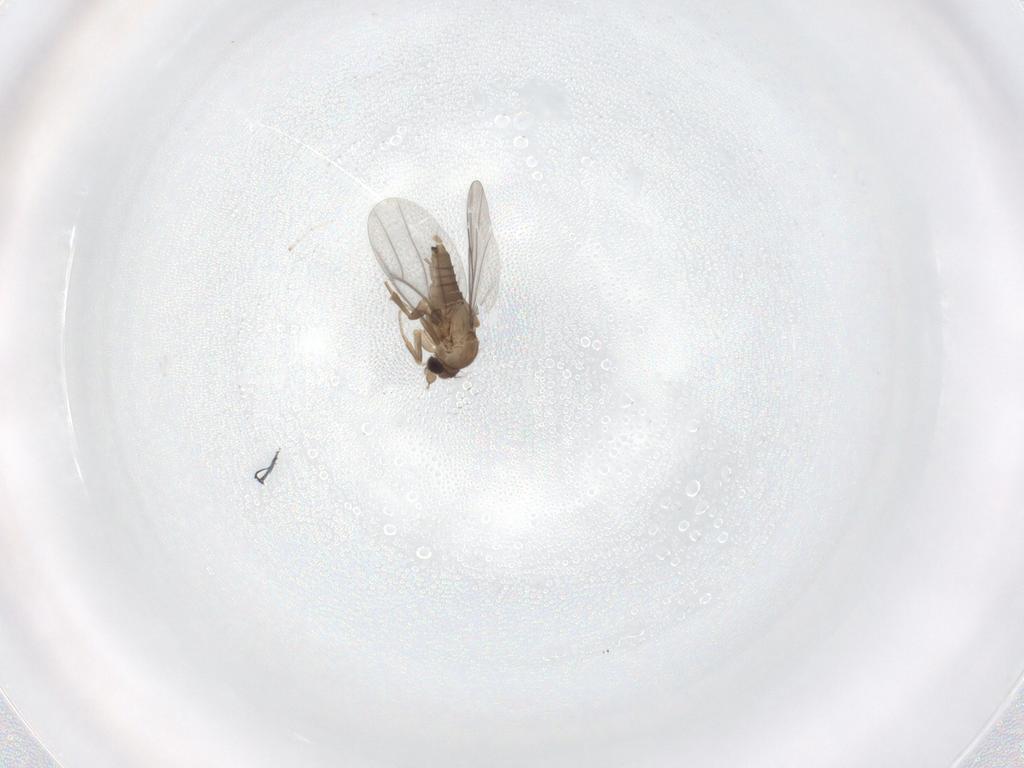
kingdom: Animalia
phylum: Arthropoda
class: Insecta
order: Diptera
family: Cecidomyiidae
